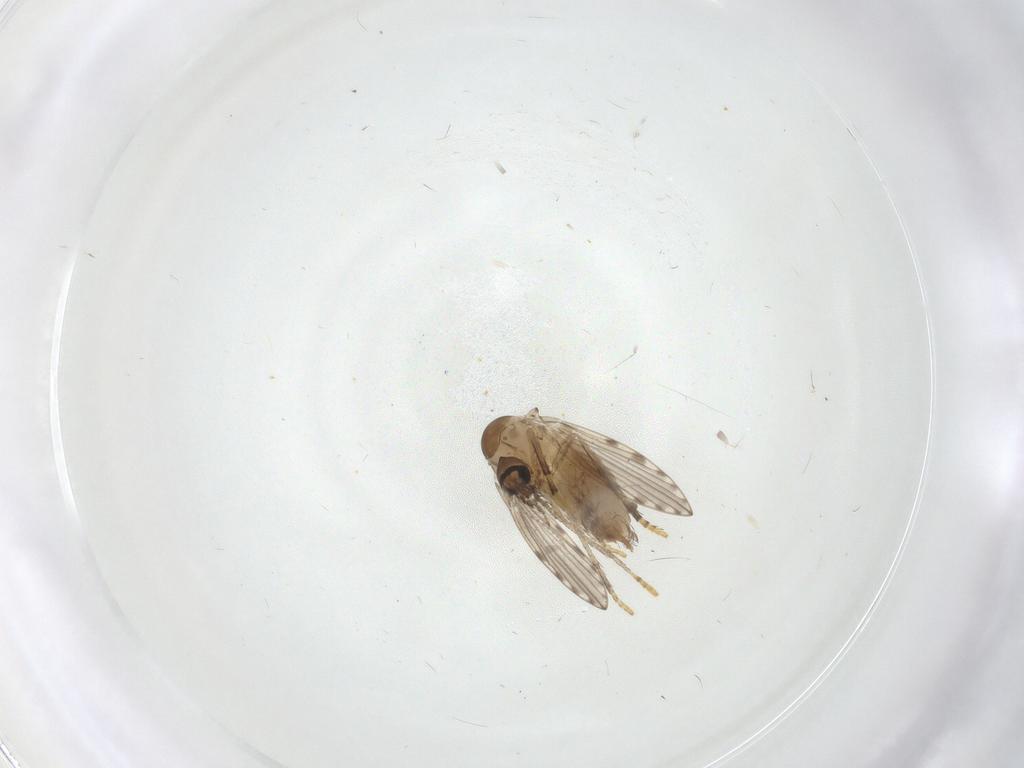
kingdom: Animalia
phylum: Arthropoda
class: Insecta
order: Diptera
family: Psychodidae
